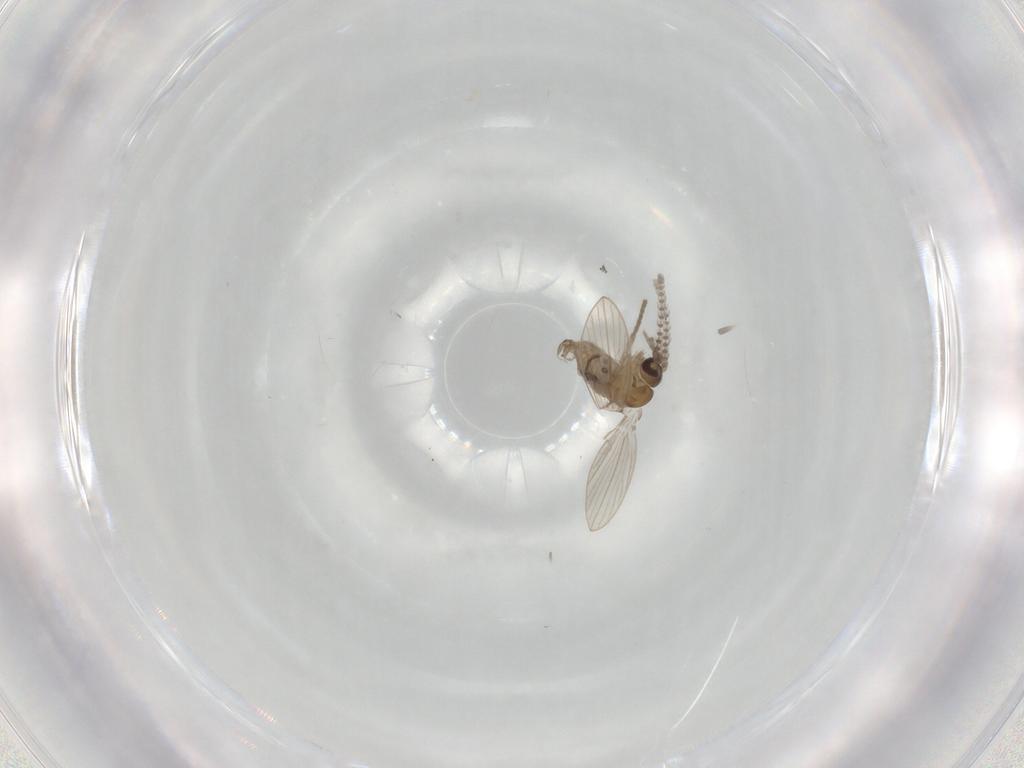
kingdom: Animalia
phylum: Arthropoda
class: Insecta
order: Diptera
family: Psychodidae
